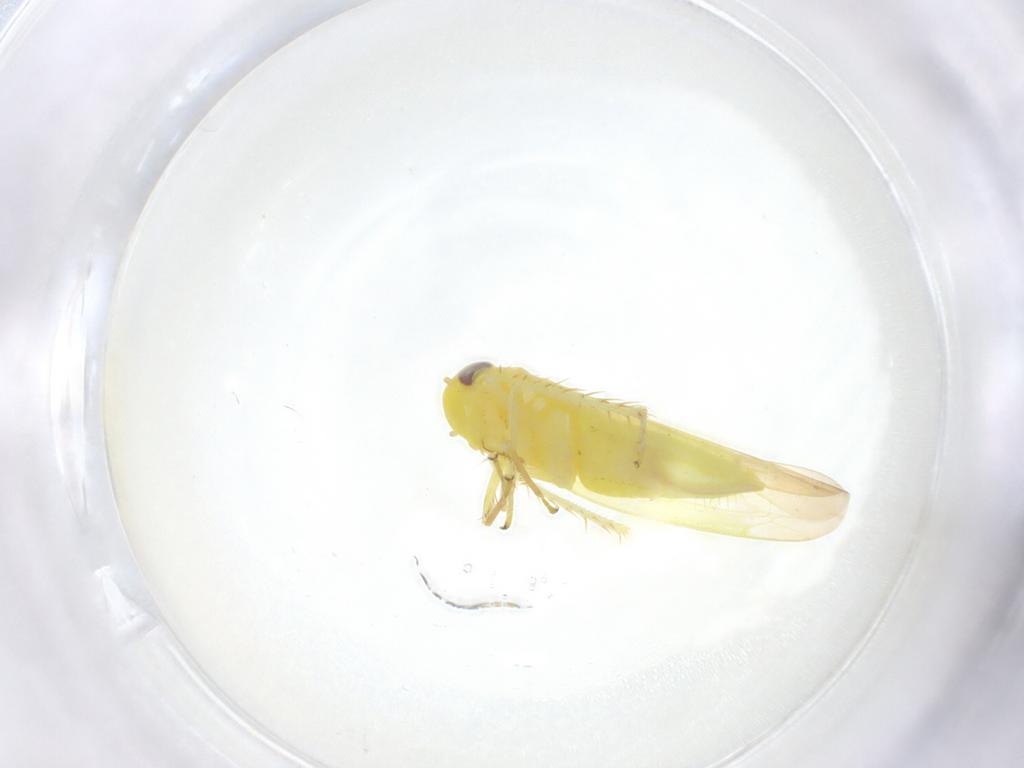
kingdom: Animalia
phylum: Arthropoda
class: Insecta
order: Hemiptera
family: Cicadellidae
